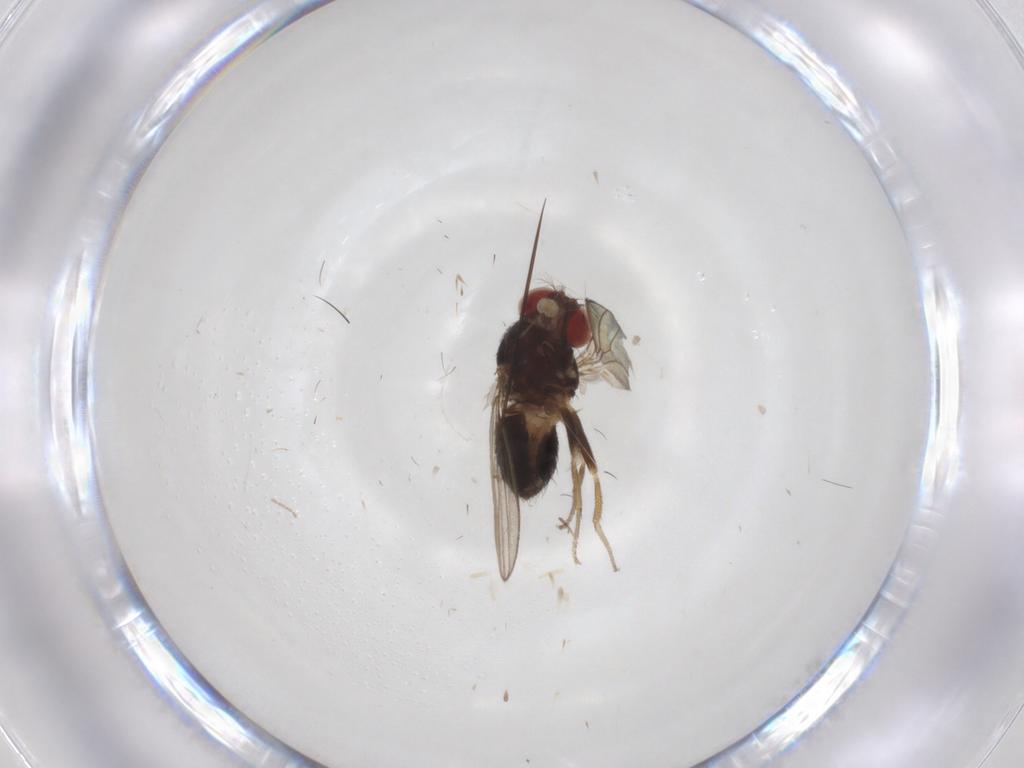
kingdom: Animalia
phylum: Arthropoda
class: Insecta
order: Diptera
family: Drosophilidae
